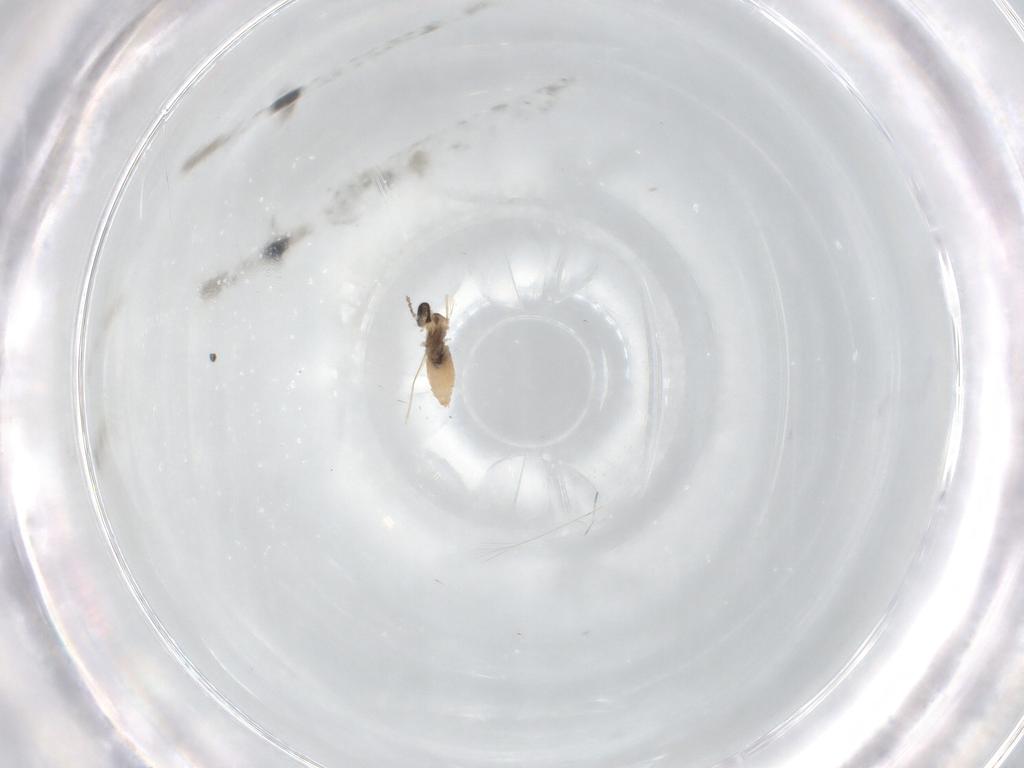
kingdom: Animalia
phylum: Arthropoda
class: Insecta
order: Diptera
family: Cecidomyiidae
